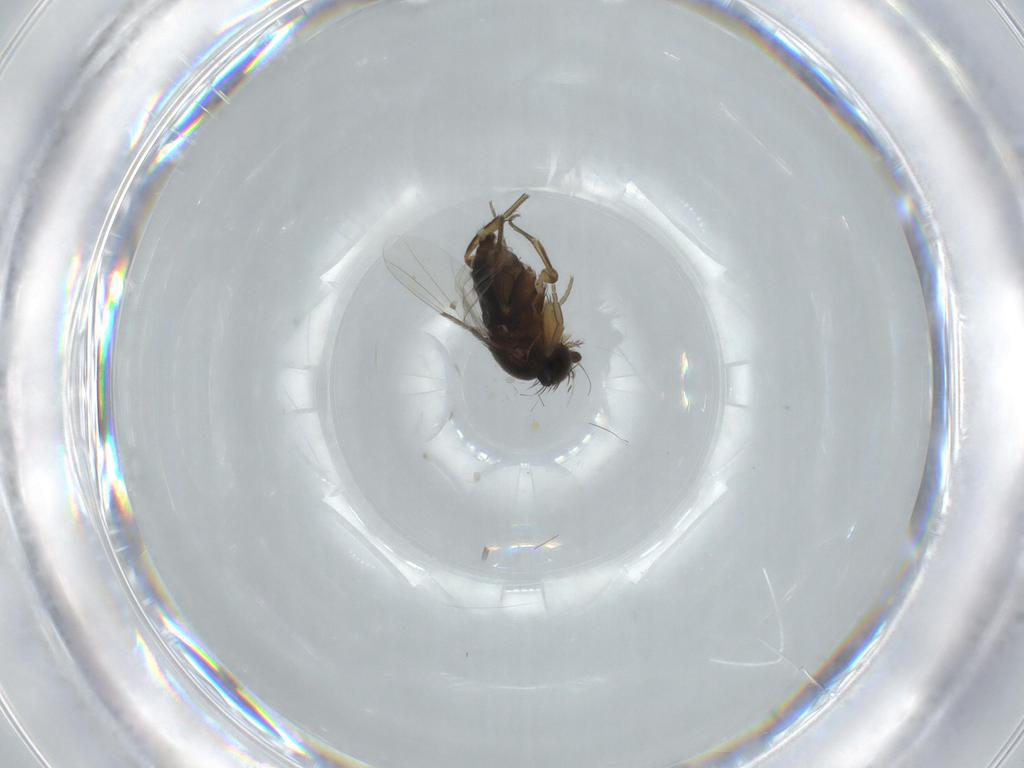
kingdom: Animalia
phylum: Arthropoda
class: Insecta
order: Diptera
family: Phoridae
